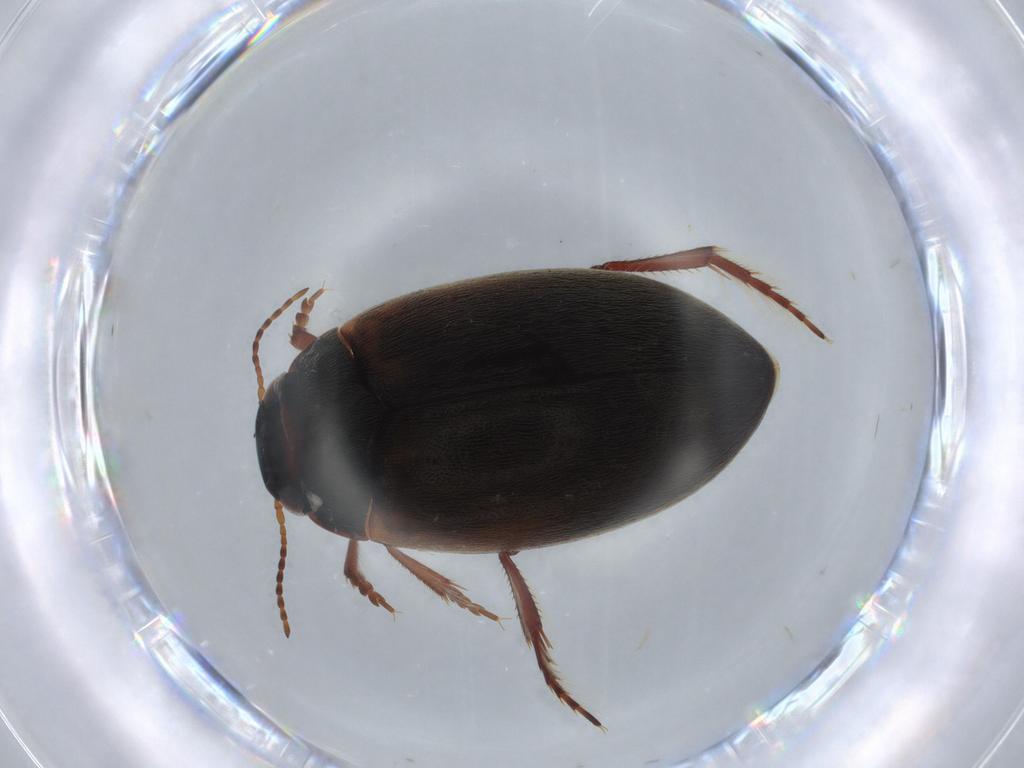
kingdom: Animalia
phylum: Arthropoda
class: Insecta
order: Coleoptera
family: Dytiscidae
